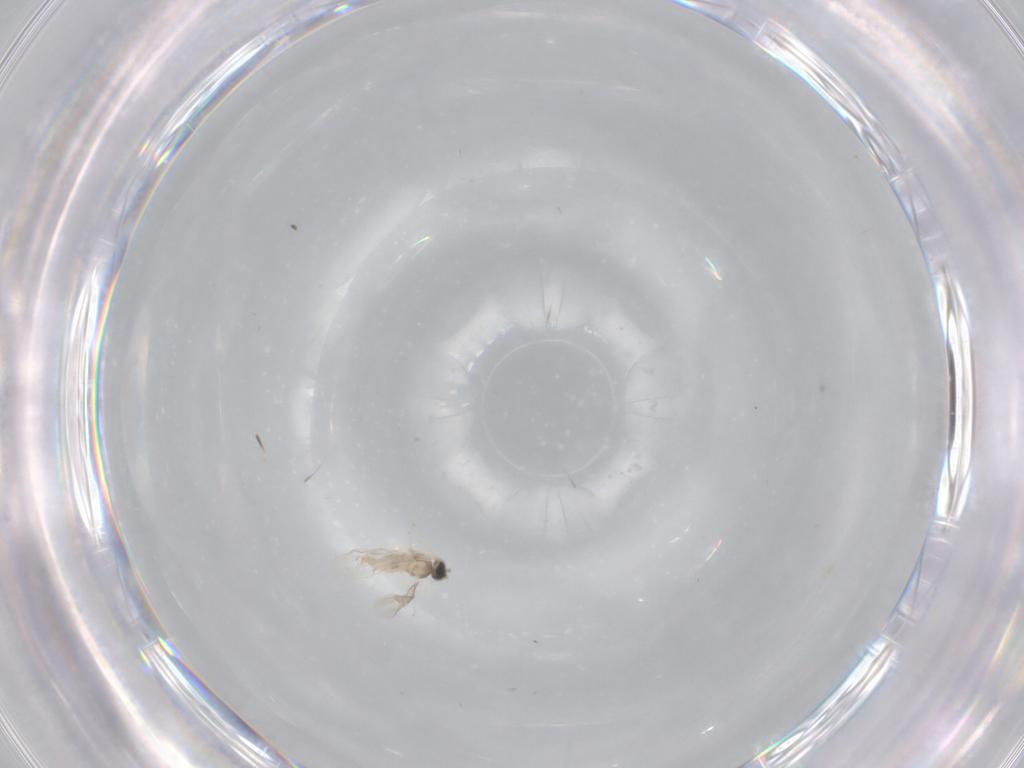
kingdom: Animalia
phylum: Arthropoda
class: Insecta
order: Diptera
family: Cecidomyiidae
